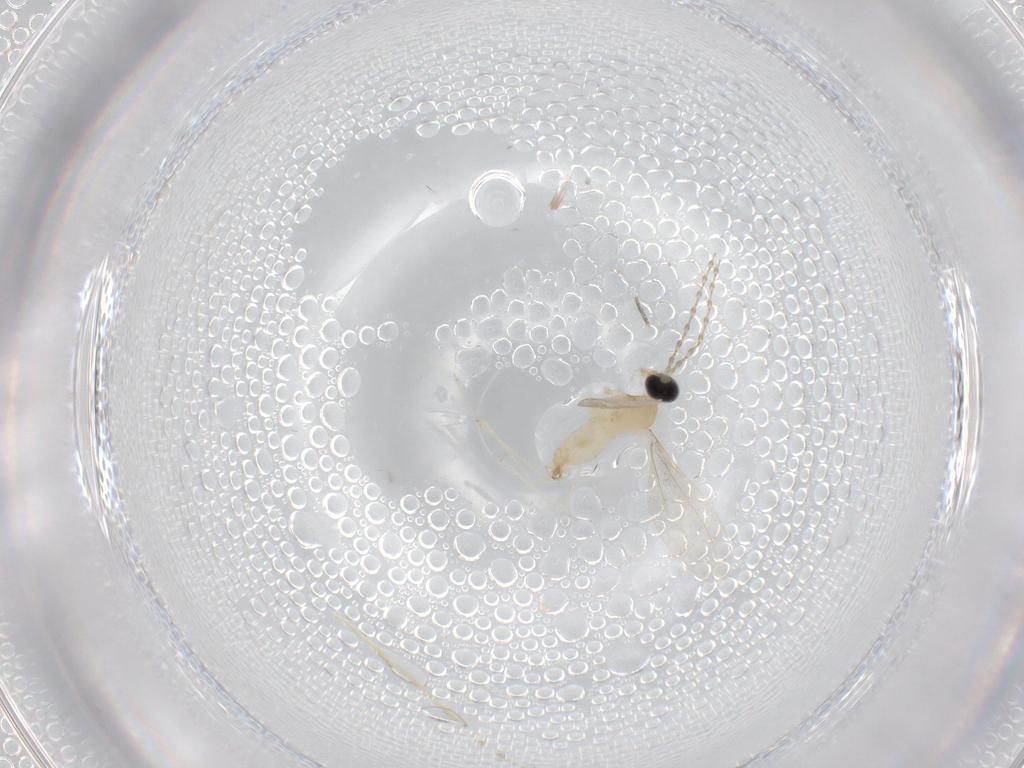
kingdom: Animalia
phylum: Arthropoda
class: Insecta
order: Diptera
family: Cecidomyiidae
